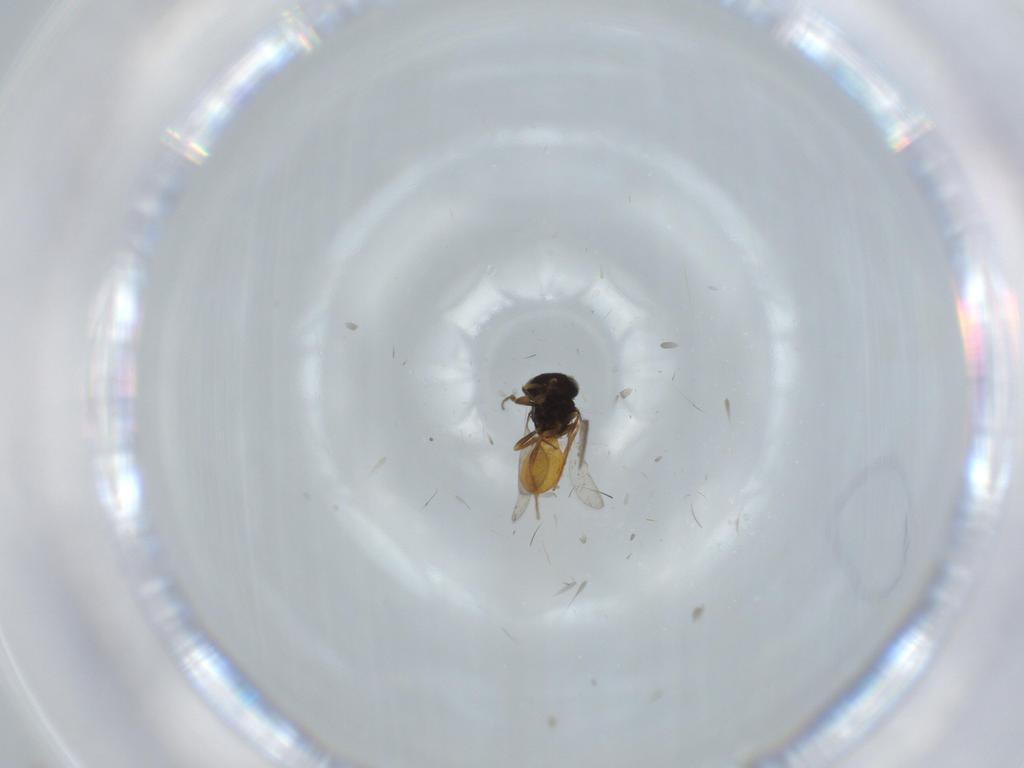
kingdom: Animalia
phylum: Arthropoda
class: Insecta
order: Hymenoptera
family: Scelionidae
